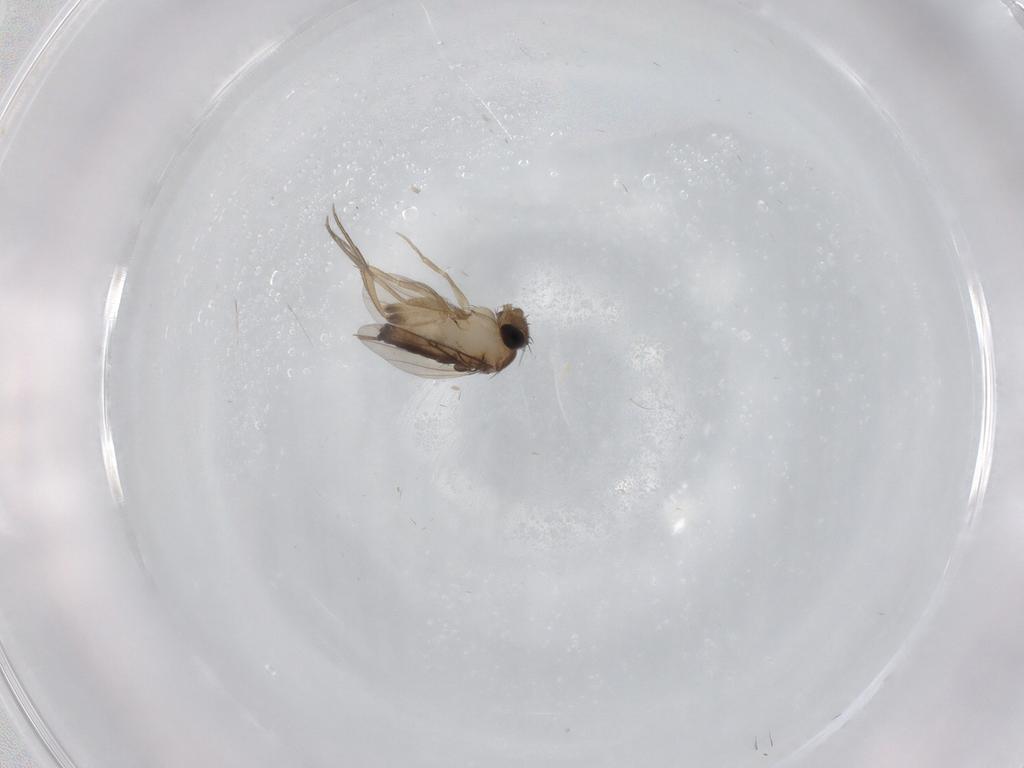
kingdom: Animalia
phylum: Arthropoda
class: Insecta
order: Diptera
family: Phoridae
